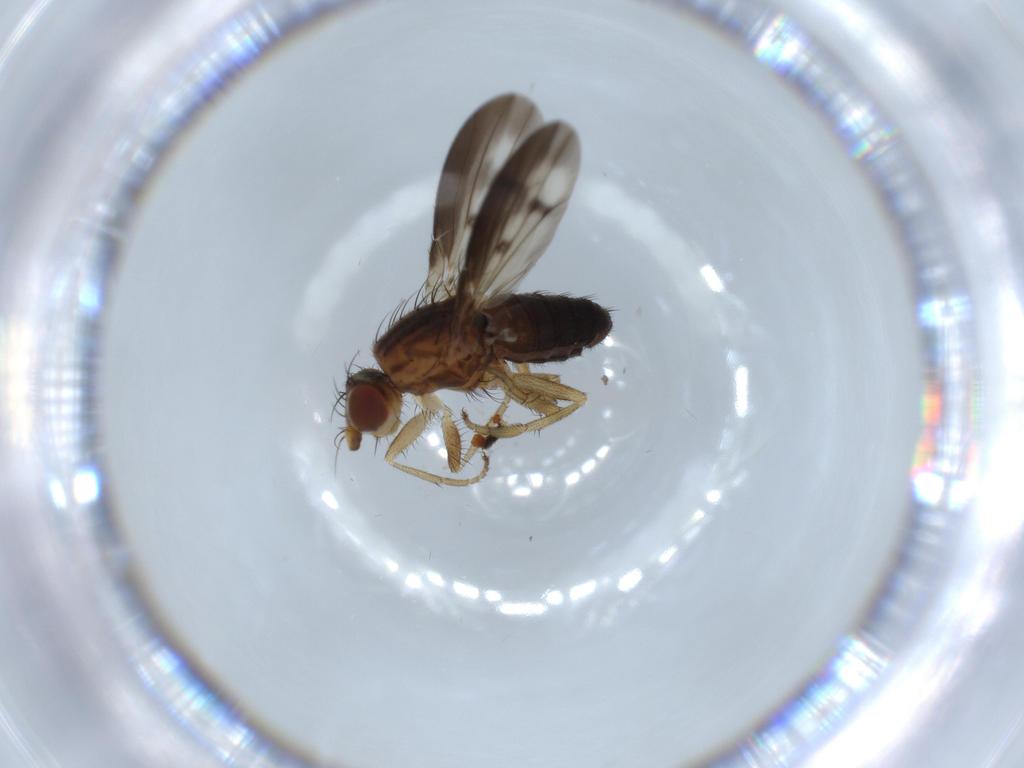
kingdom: Animalia
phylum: Arthropoda
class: Insecta
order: Diptera
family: Heleomyzidae
